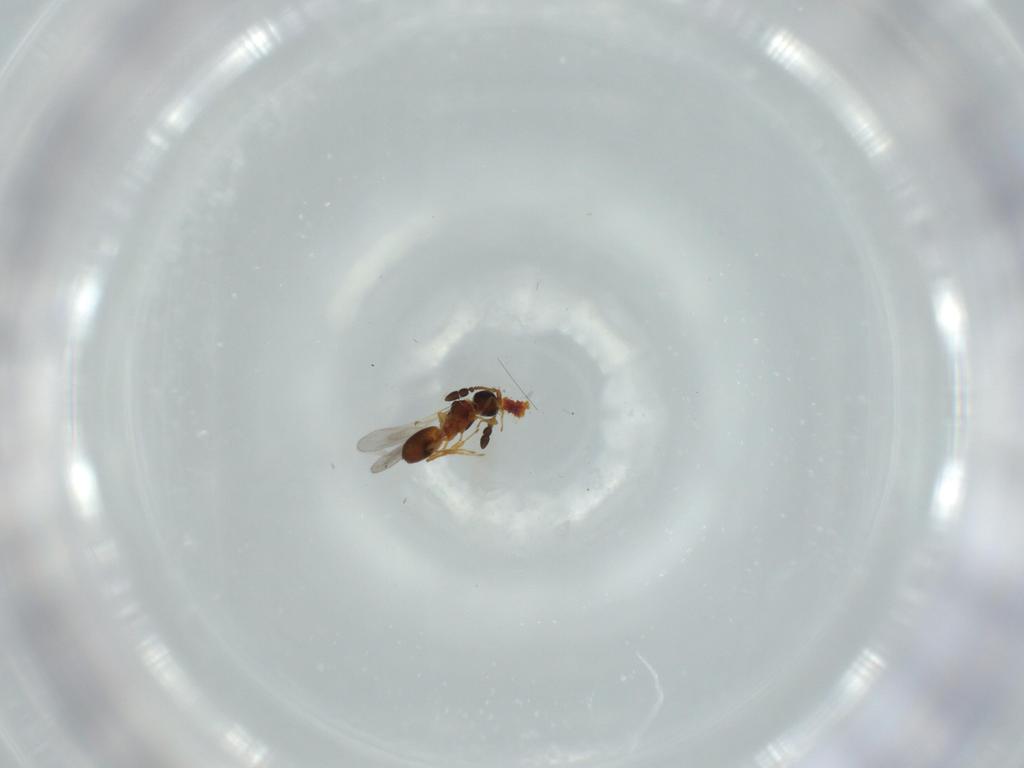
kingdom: Animalia
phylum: Arthropoda
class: Insecta
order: Hymenoptera
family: Diapriidae
